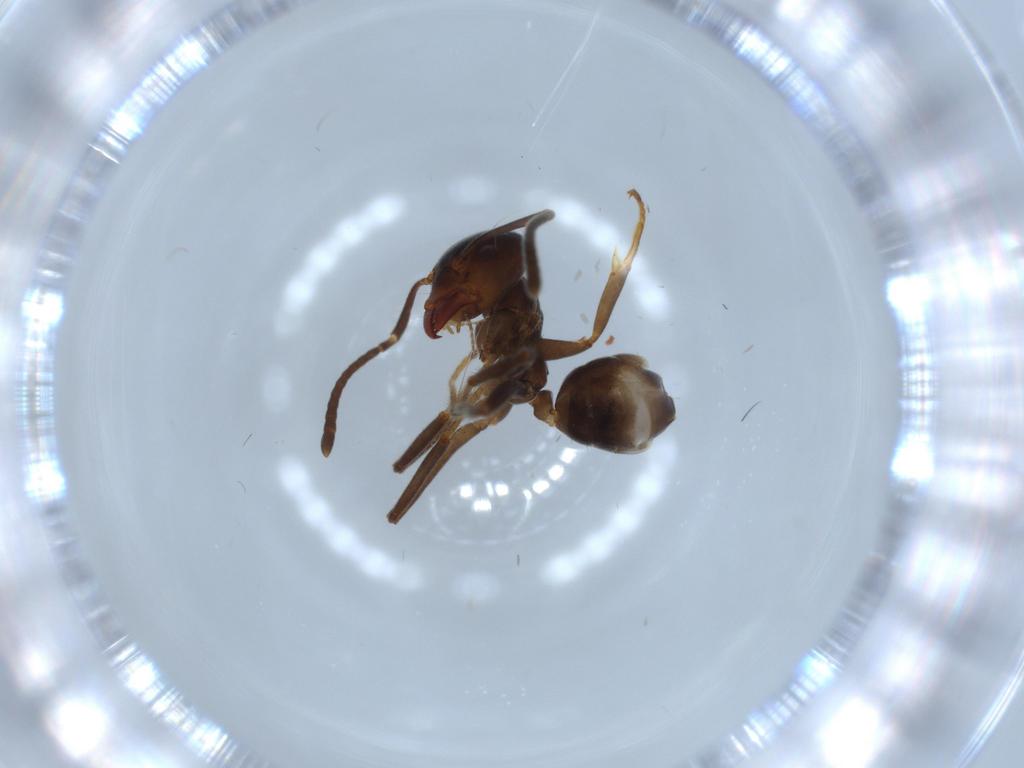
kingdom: Animalia
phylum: Arthropoda
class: Insecta
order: Hymenoptera
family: Formicidae
